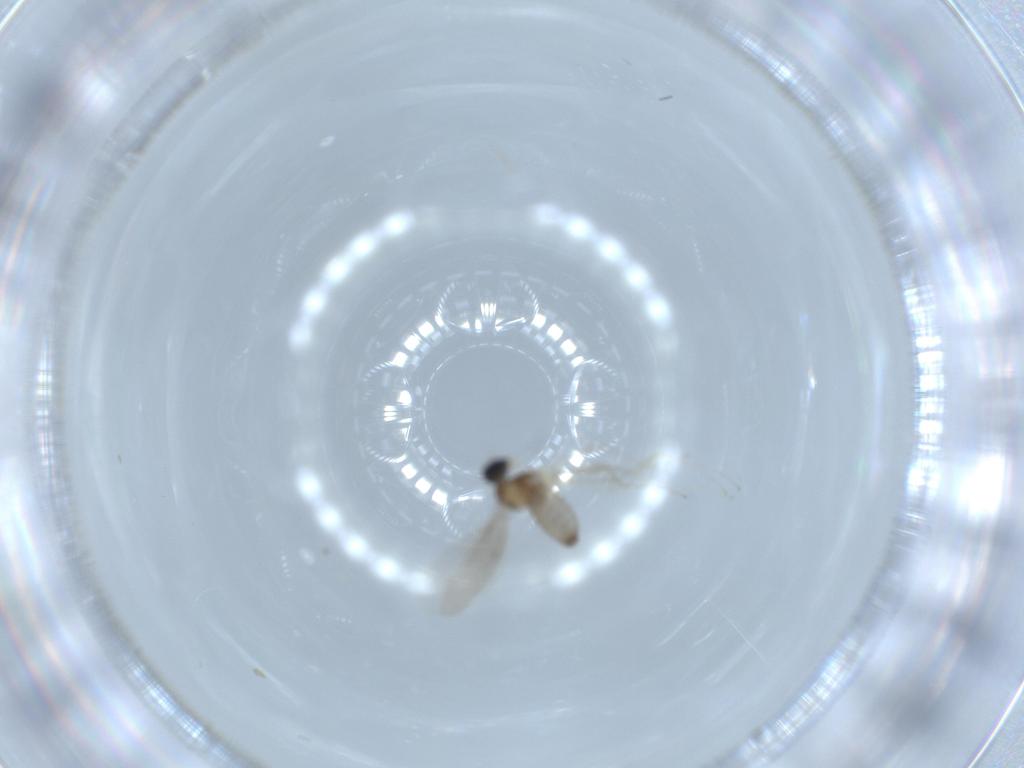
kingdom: Animalia
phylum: Arthropoda
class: Insecta
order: Diptera
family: Cecidomyiidae
